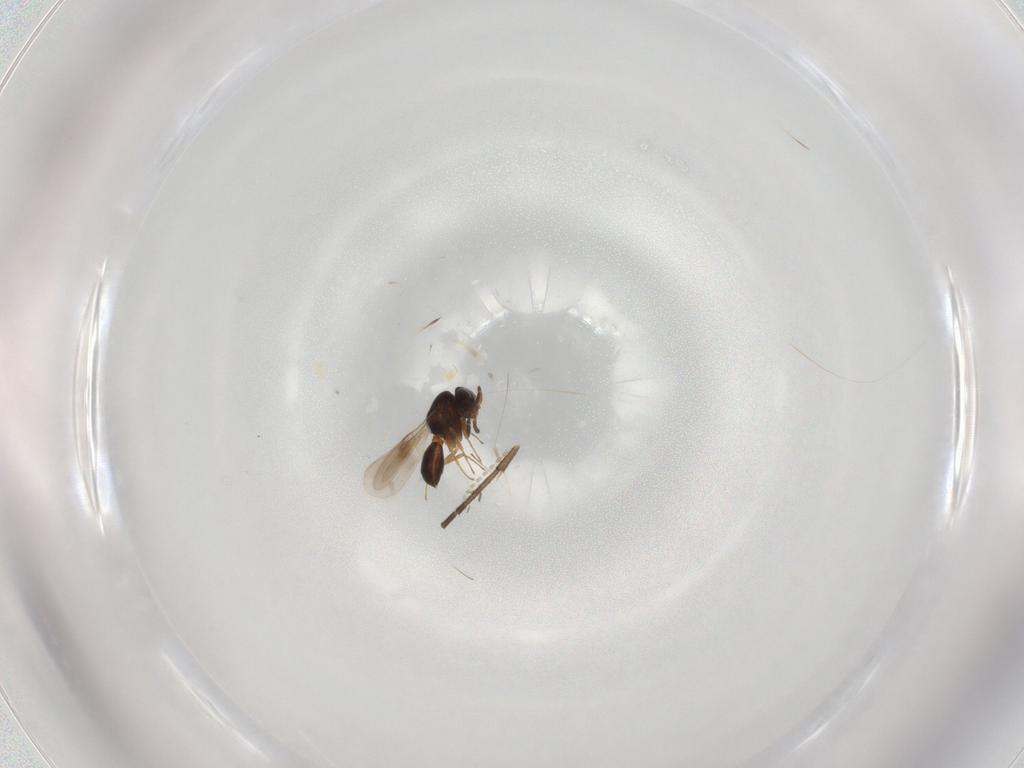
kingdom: Animalia
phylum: Arthropoda
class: Insecta
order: Hymenoptera
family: Scelionidae
